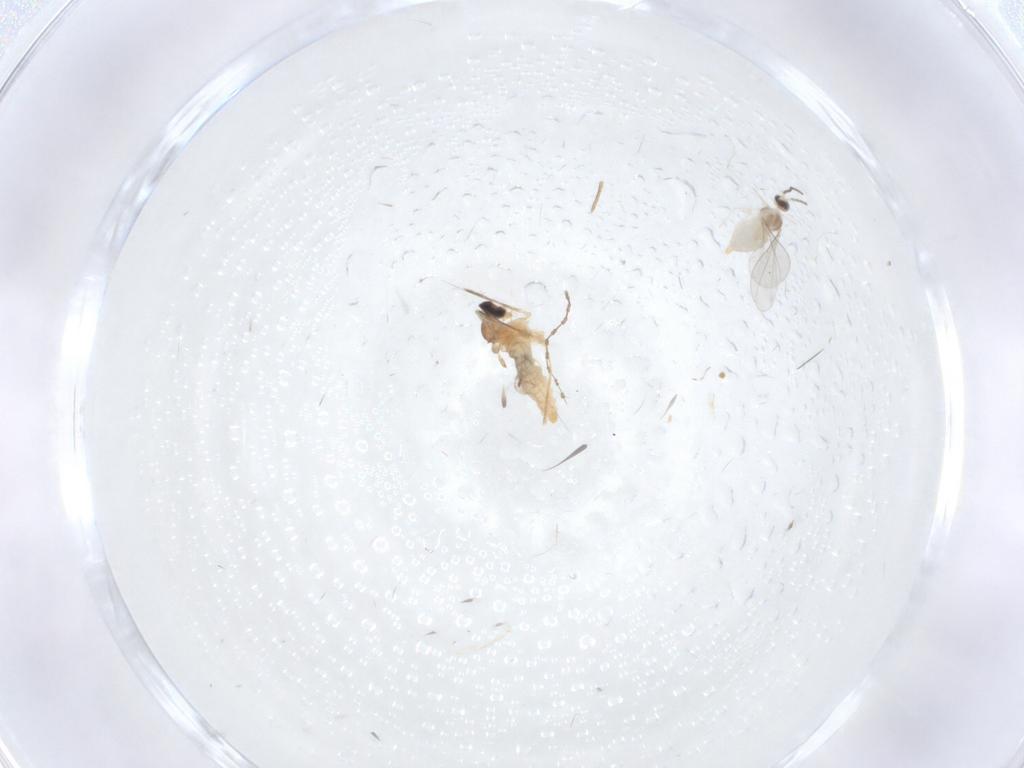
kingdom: Animalia
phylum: Arthropoda
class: Insecta
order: Diptera
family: Cecidomyiidae
